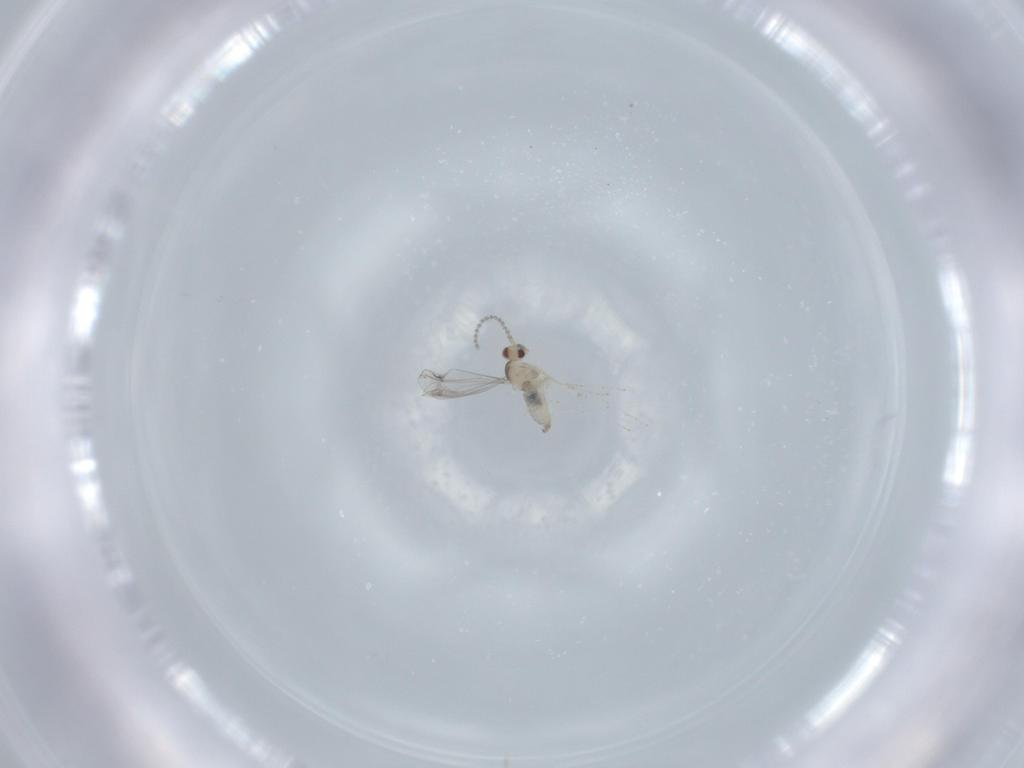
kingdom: Animalia
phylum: Arthropoda
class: Insecta
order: Diptera
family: Cecidomyiidae
